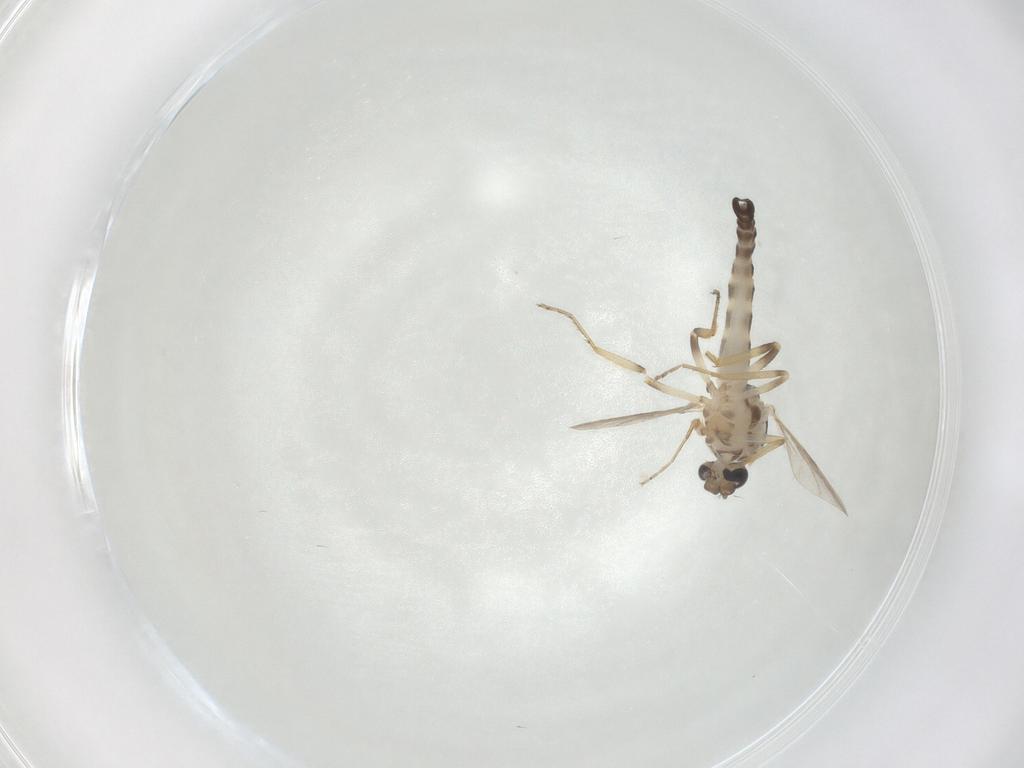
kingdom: Animalia
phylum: Arthropoda
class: Insecta
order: Diptera
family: Ceratopogonidae
